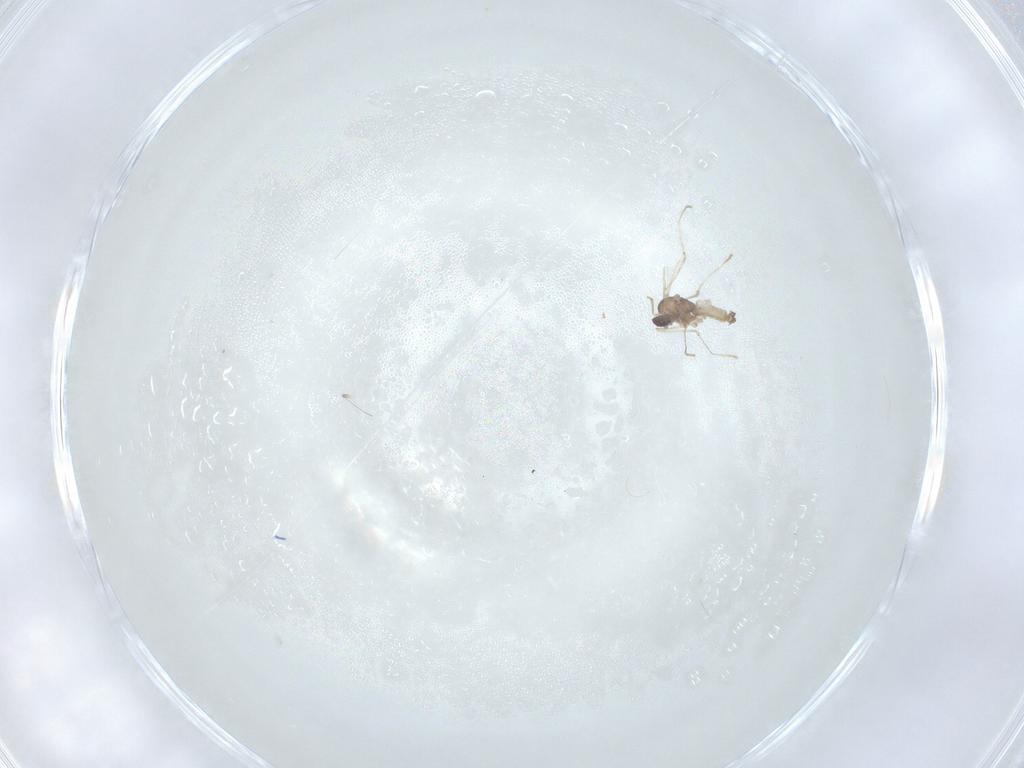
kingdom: Animalia
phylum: Arthropoda
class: Insecta
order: Diptera
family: Cecidomyiidae
